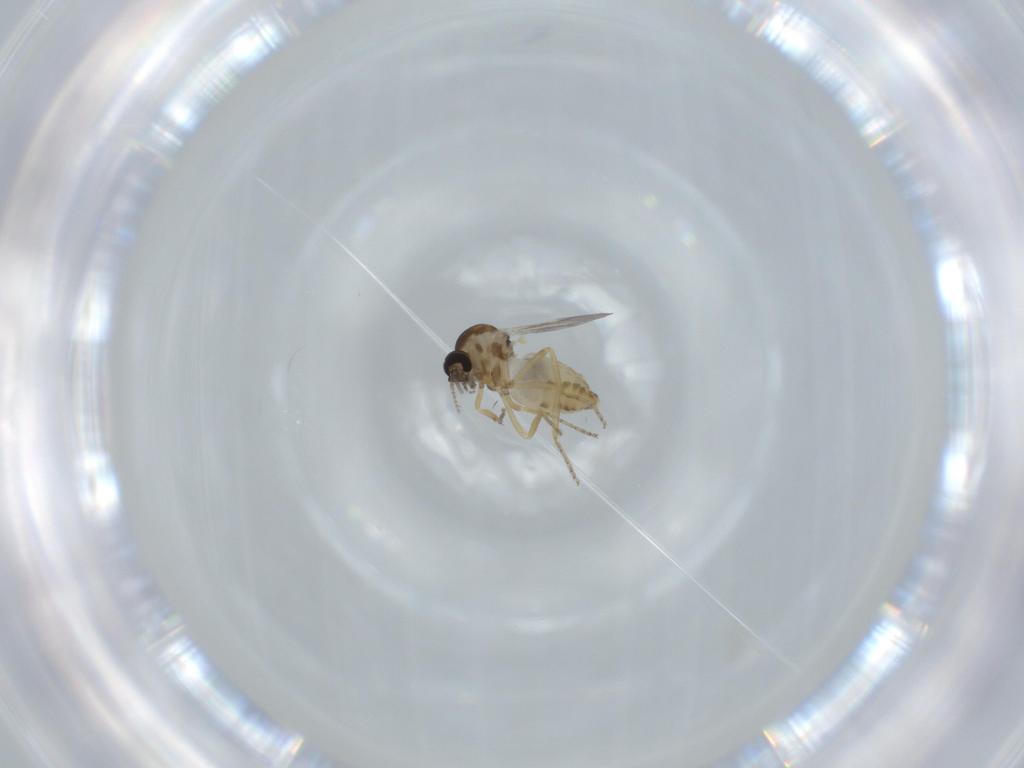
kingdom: Animalia
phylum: Arthropoda
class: Insecta
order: Diptera
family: Ceratopogonidae
